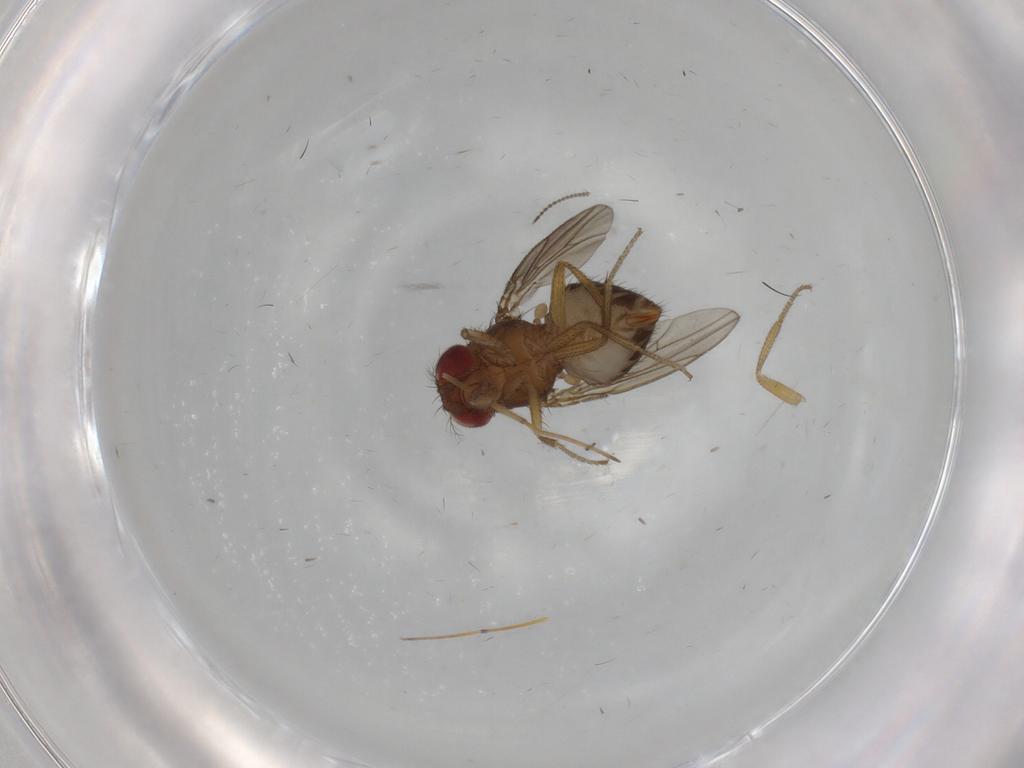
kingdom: Animalia
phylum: Arthropoda
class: Insecta
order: Diptera
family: Drosophilidae
